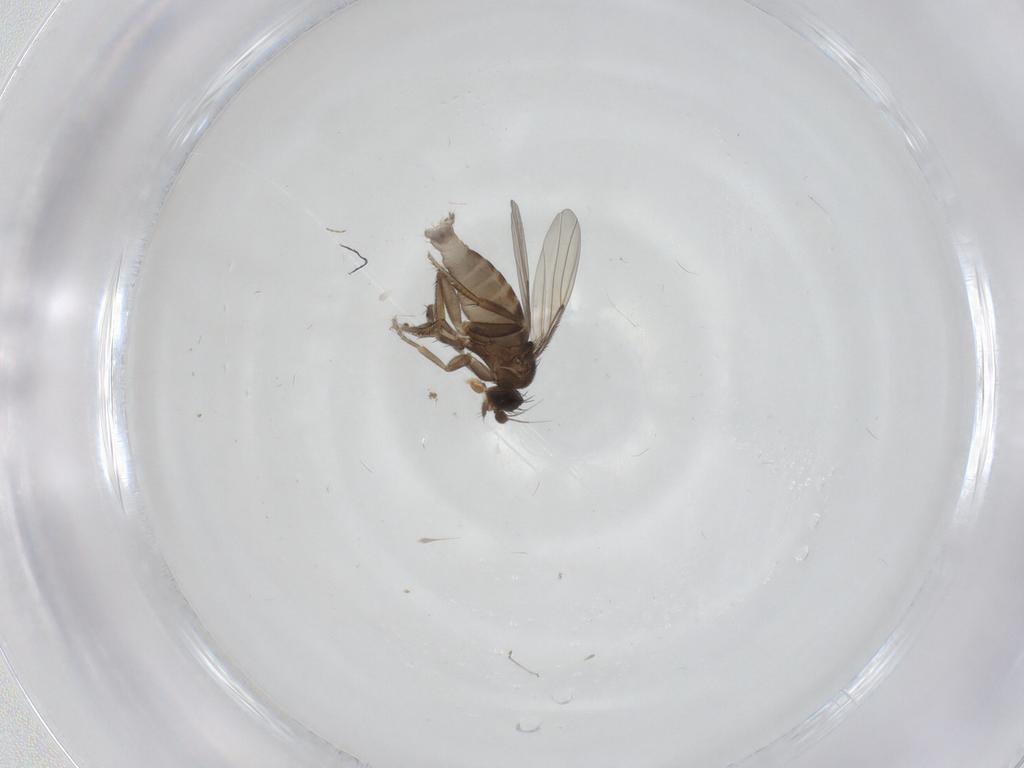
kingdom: Animalia
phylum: Arthropoda
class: Insecta
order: Diptera
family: Phoridae
